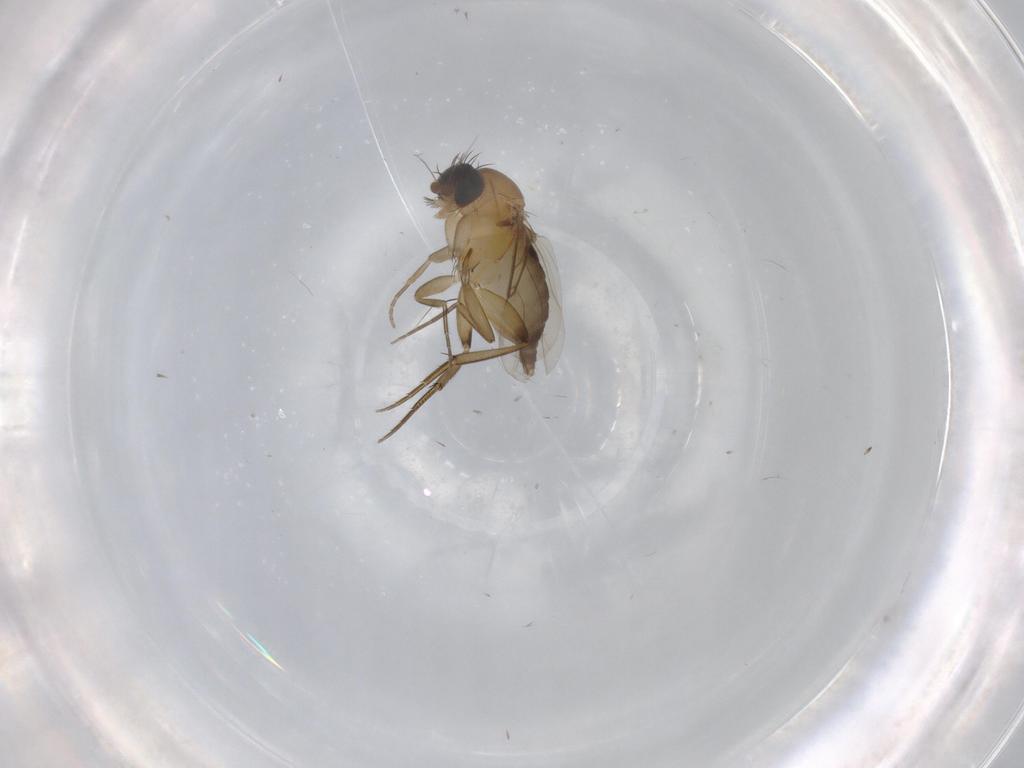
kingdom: Animalia
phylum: Arthropoda
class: Insecta
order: Diptera
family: Phoridae
